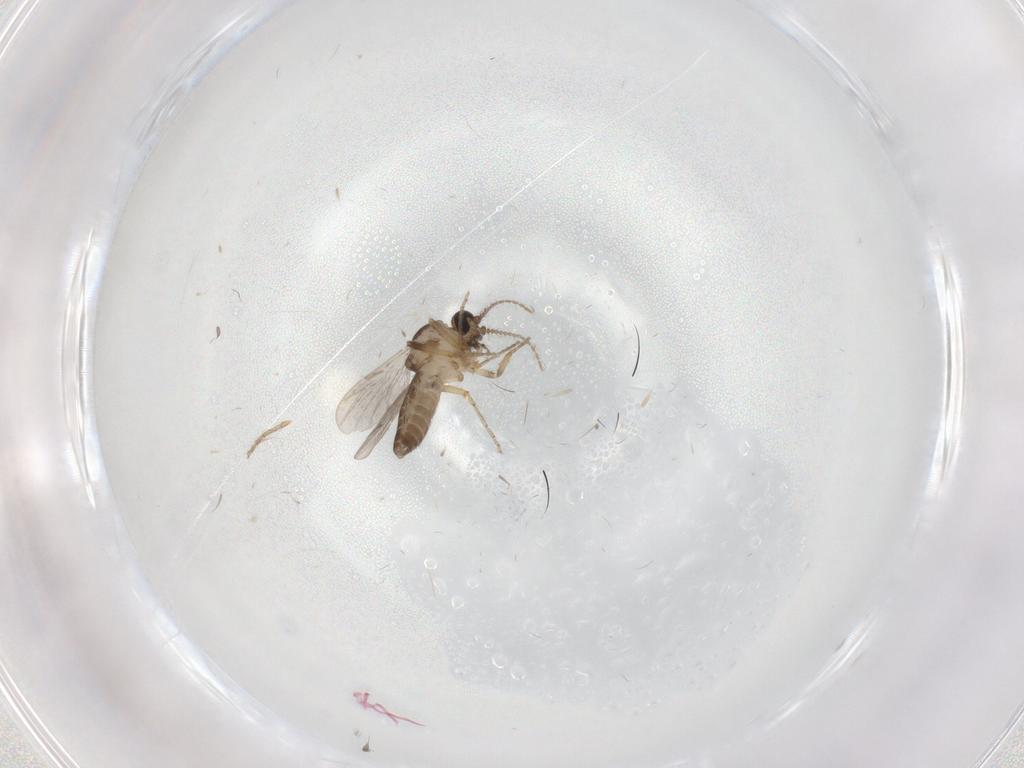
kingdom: Animalia
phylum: Arthropoda
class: Insecta
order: Diptera
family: Ceratopogonidae
